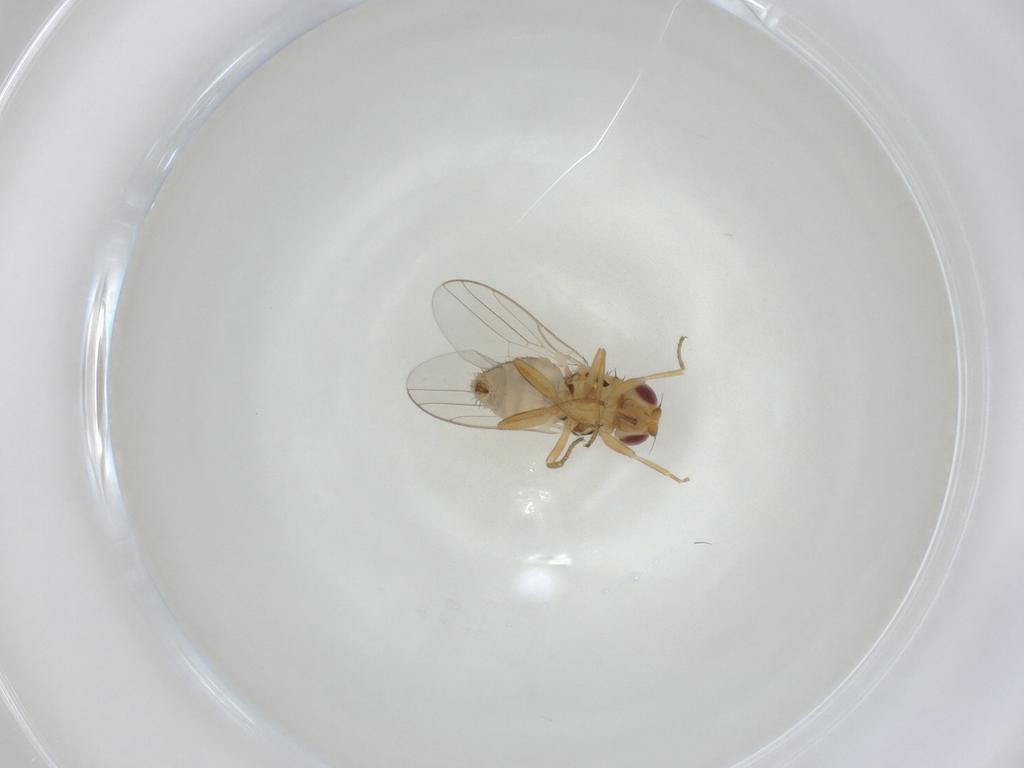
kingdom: Animalia
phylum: Arthropoda
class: Insecta
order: Diptera
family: Chloropidae
